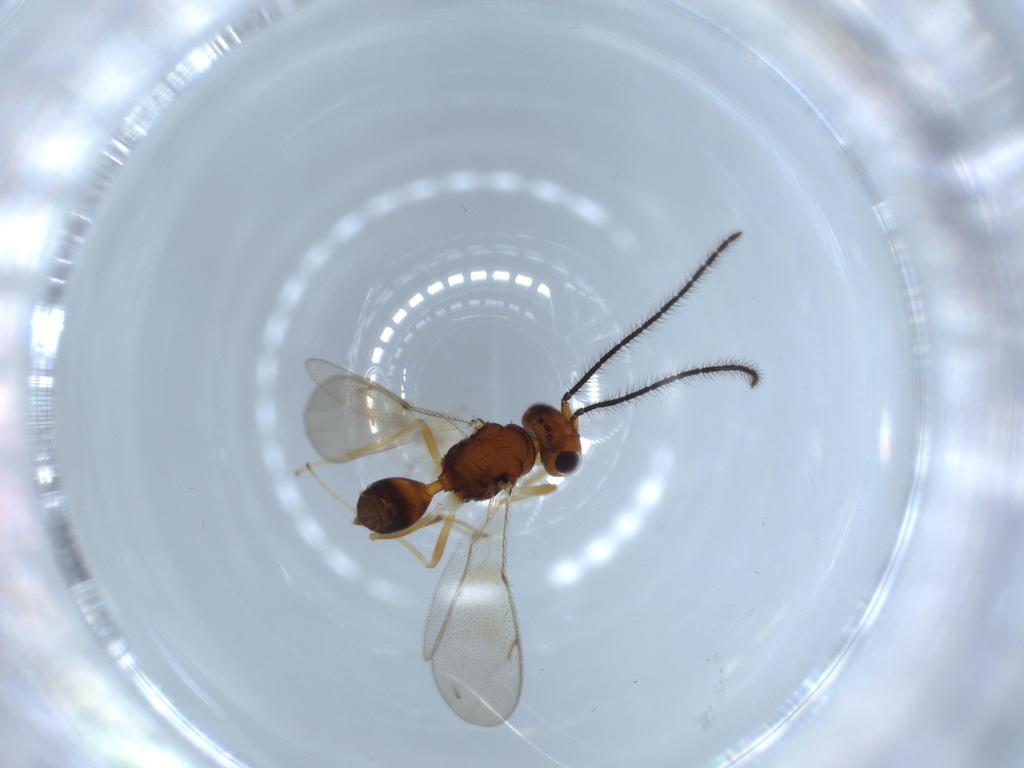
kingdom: Animalia
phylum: Arthropoda
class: Insecta
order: Hymenoptera
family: Diparidae
